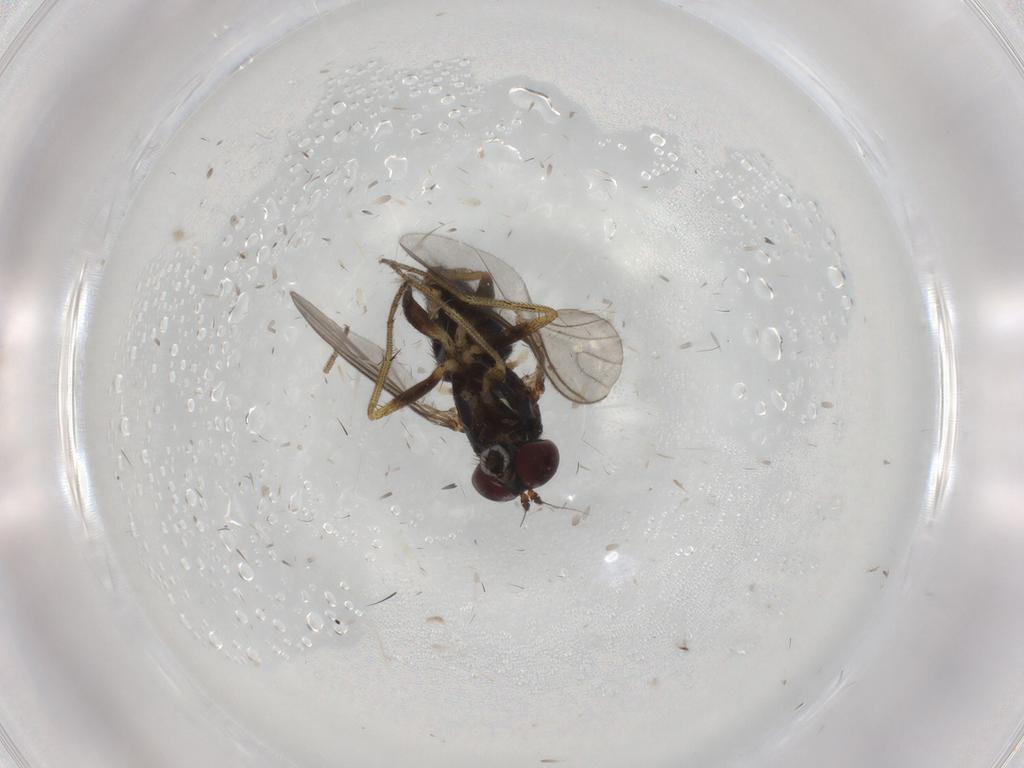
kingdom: Animalia
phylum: Arthropoda
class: Insecta
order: Diptera
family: Sciaridae
